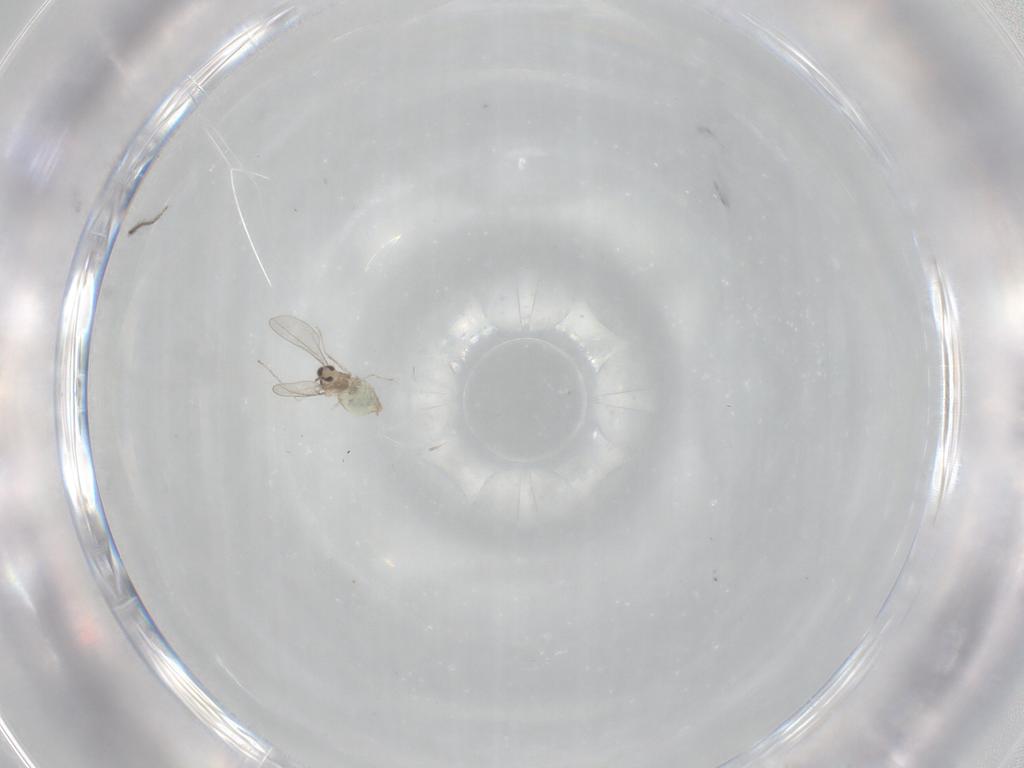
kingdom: Animalia
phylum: Arthropoda
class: Insecta
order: Diptera
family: Cecidomyiidae
